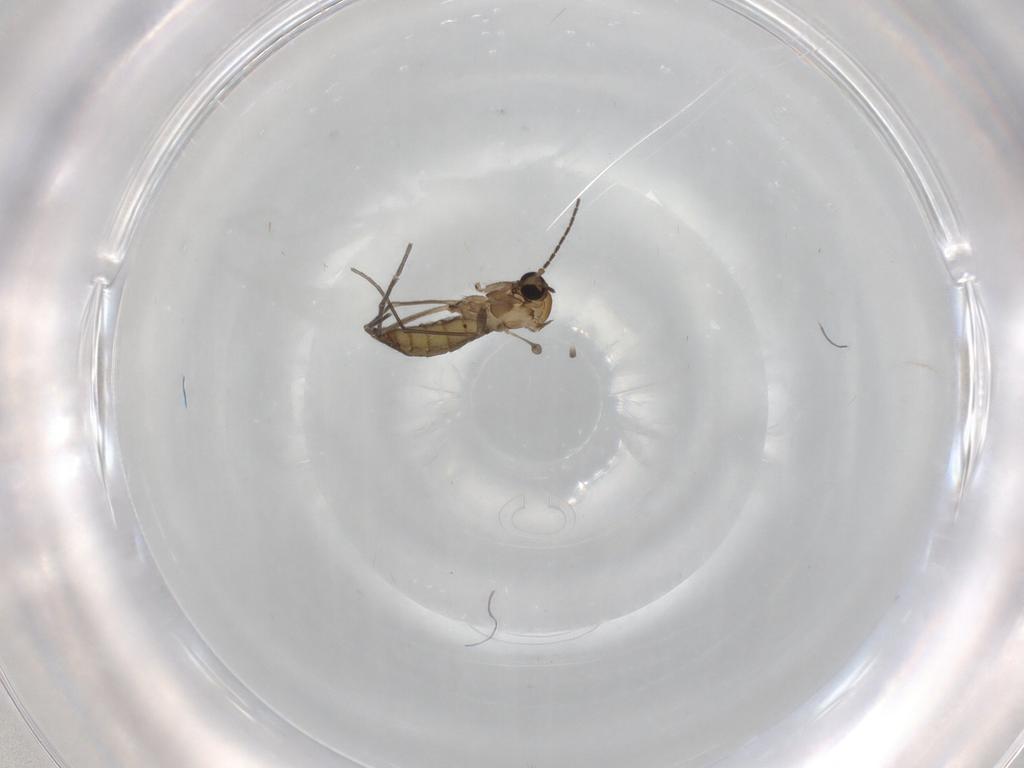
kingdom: Animalia
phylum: Arthropoda
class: Insecta
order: Diptera
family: Sciaridae
